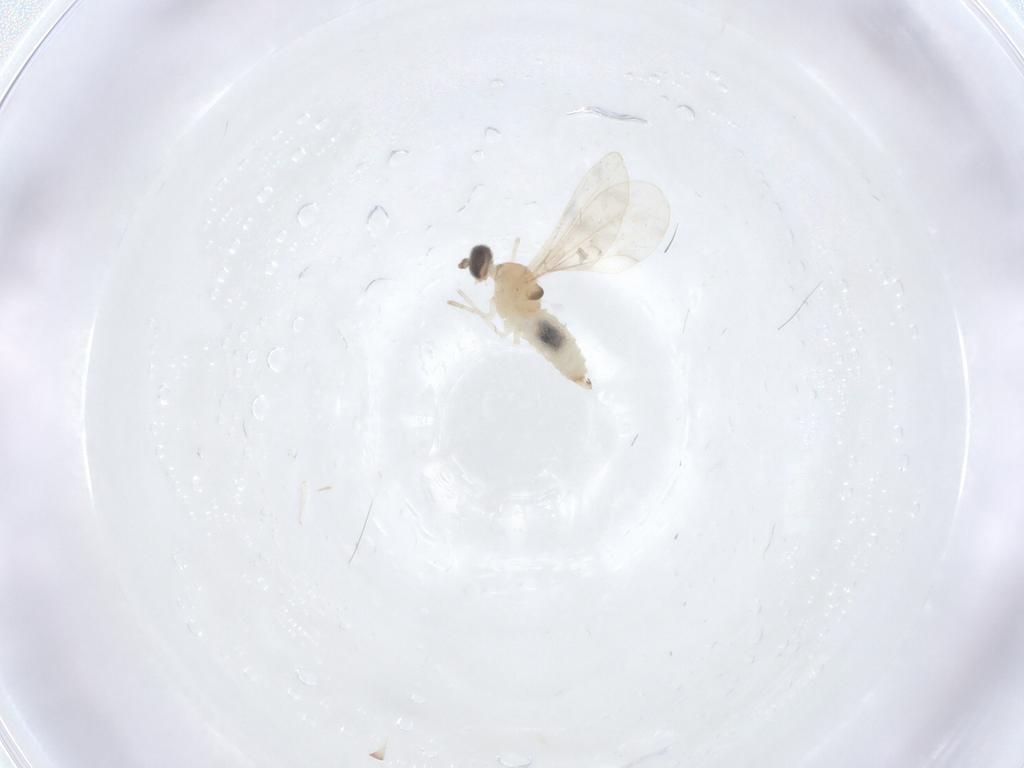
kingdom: Animalia
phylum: Arthropoda
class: Insecta
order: Diptera
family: Cecidomyiidae
